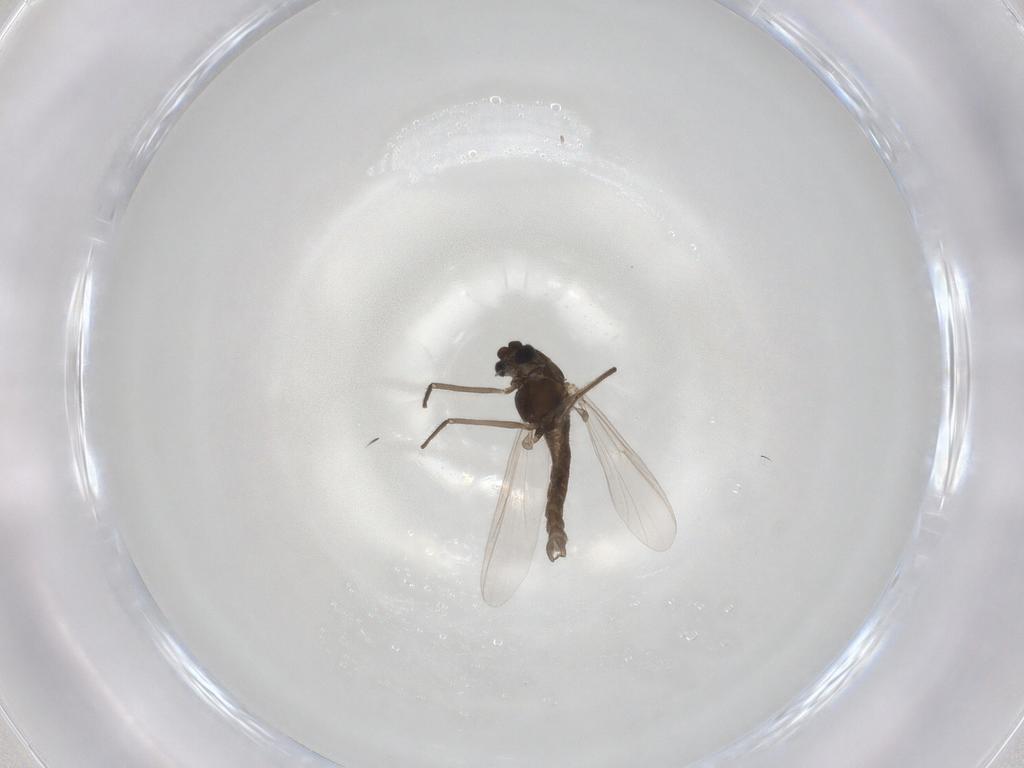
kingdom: Animalia
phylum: Arthropoda
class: Insecta
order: Diptera
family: Chironomidae
